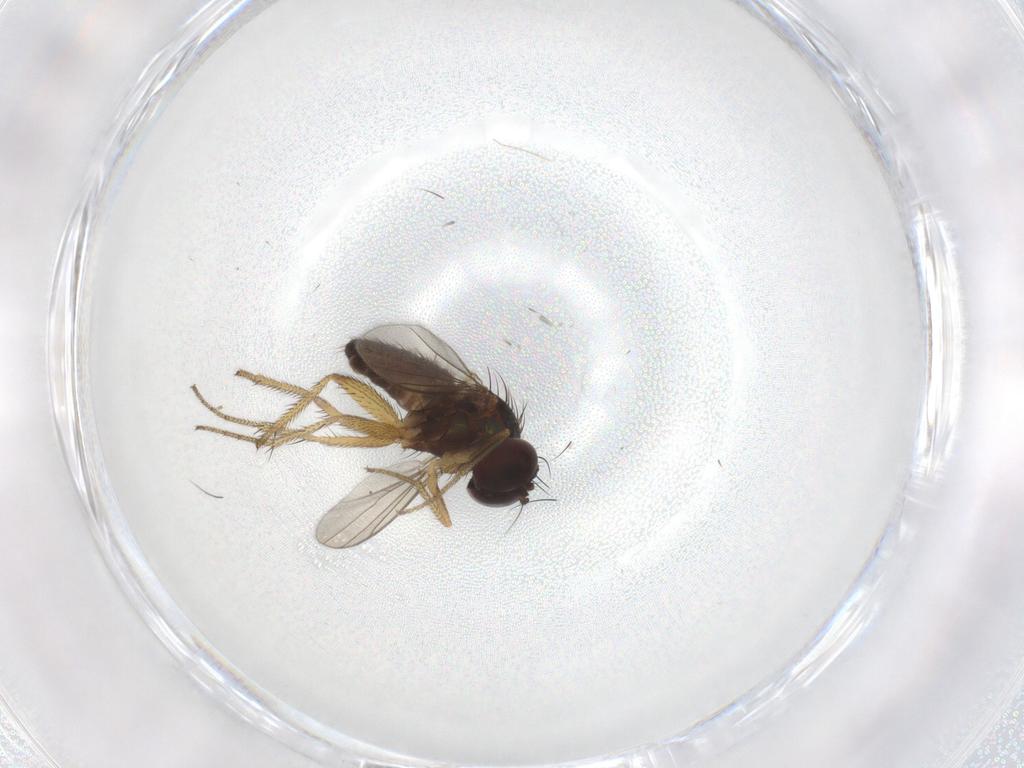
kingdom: Animalia
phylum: Arthropoda
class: Insecta
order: Diptera
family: Dolichopodidae
